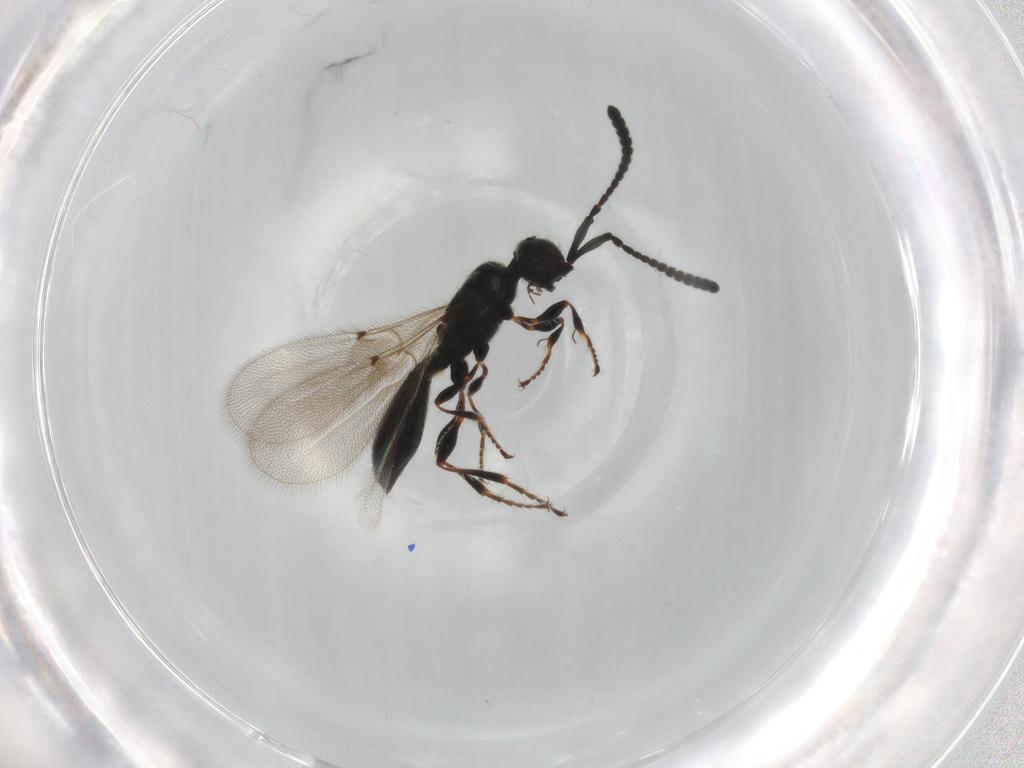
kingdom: Animalia
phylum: Arthropoda
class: Insecta
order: Hymenoptera
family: Diapriidae
